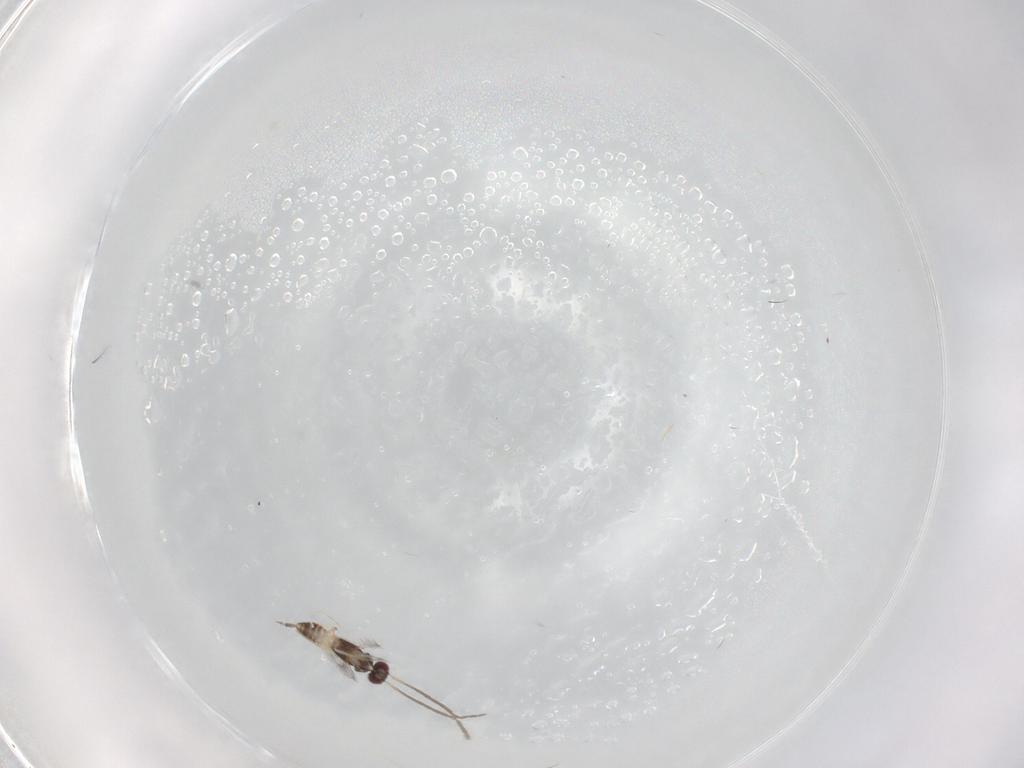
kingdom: Animalia
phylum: Arthropoda
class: Insecta
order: Hymenoptera
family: Mymaridae
